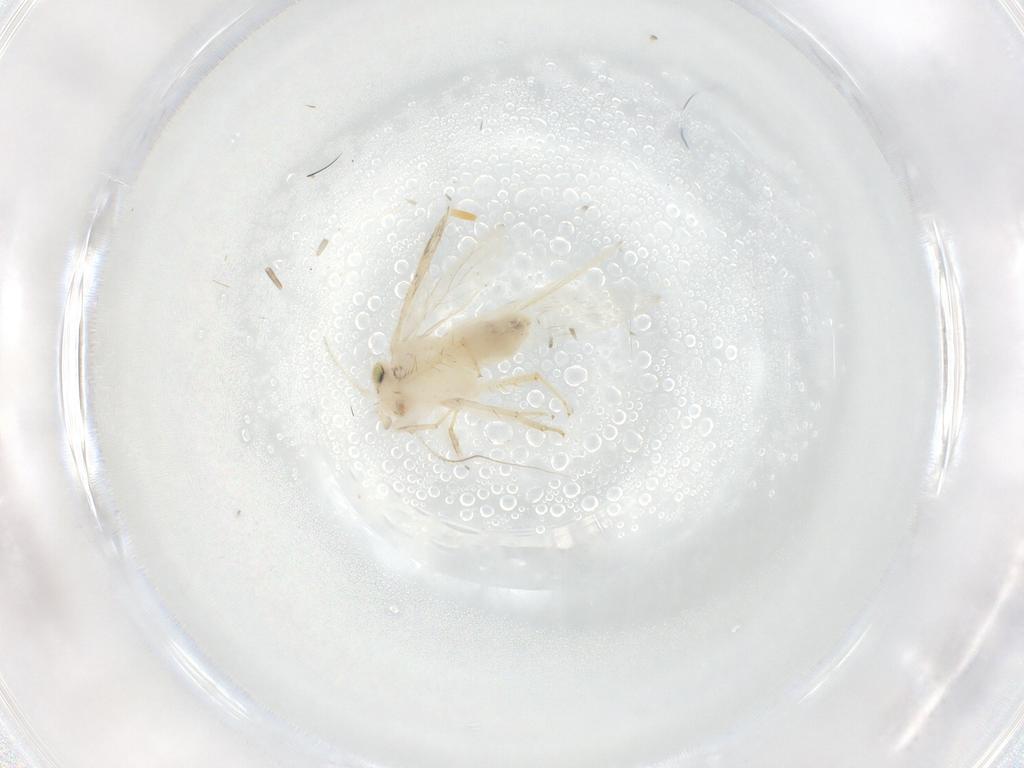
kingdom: Animalia
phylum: Arthropoda
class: Insecta
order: Psocodea
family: Lepidopsocidae
